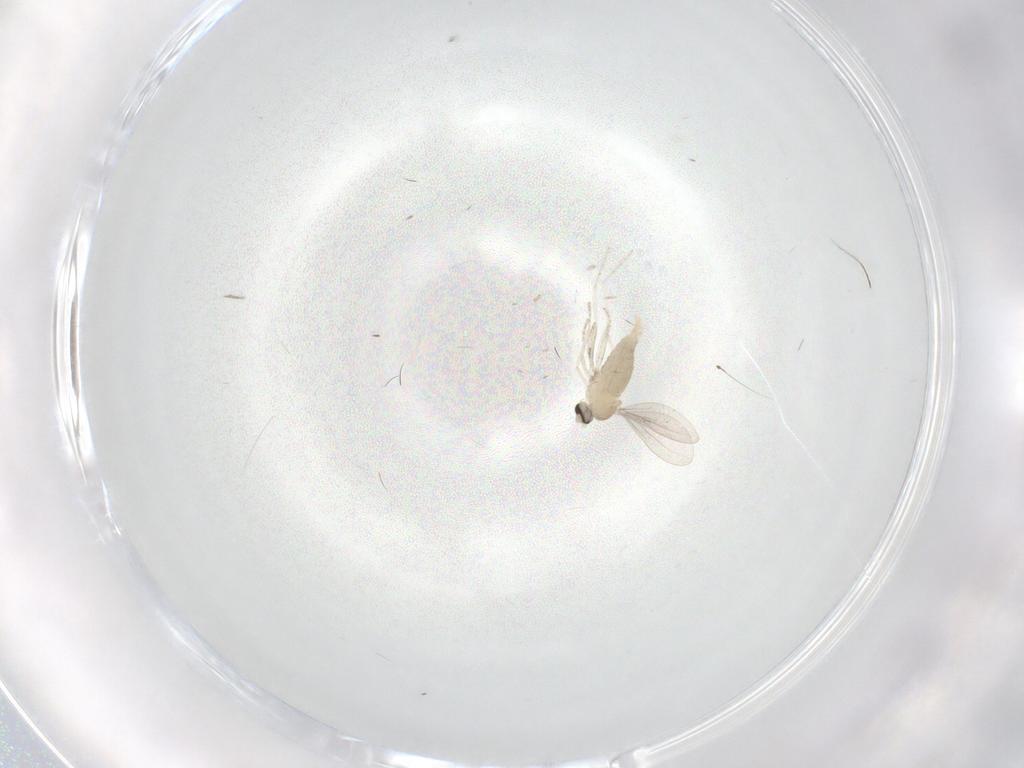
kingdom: Animalia
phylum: Arthropoda
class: Insecta
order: Diptera
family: Cecidomyiidae
